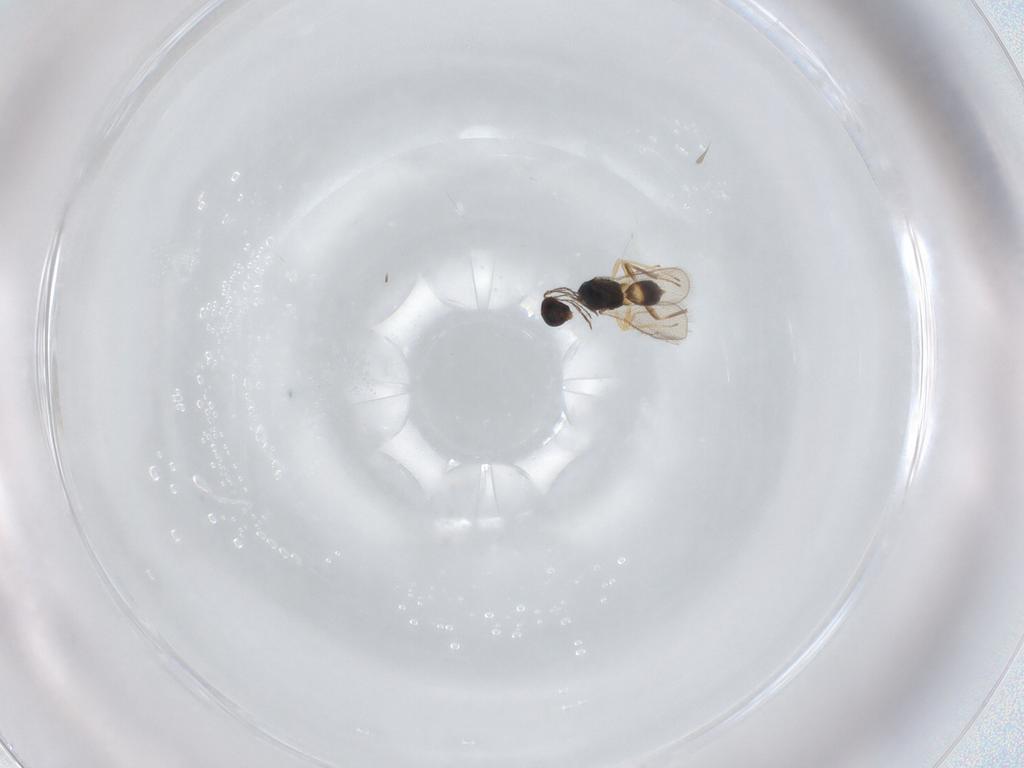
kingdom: Animalia
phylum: Arthropoda
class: Insecta
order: Hymenoptera
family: Eulophidae
